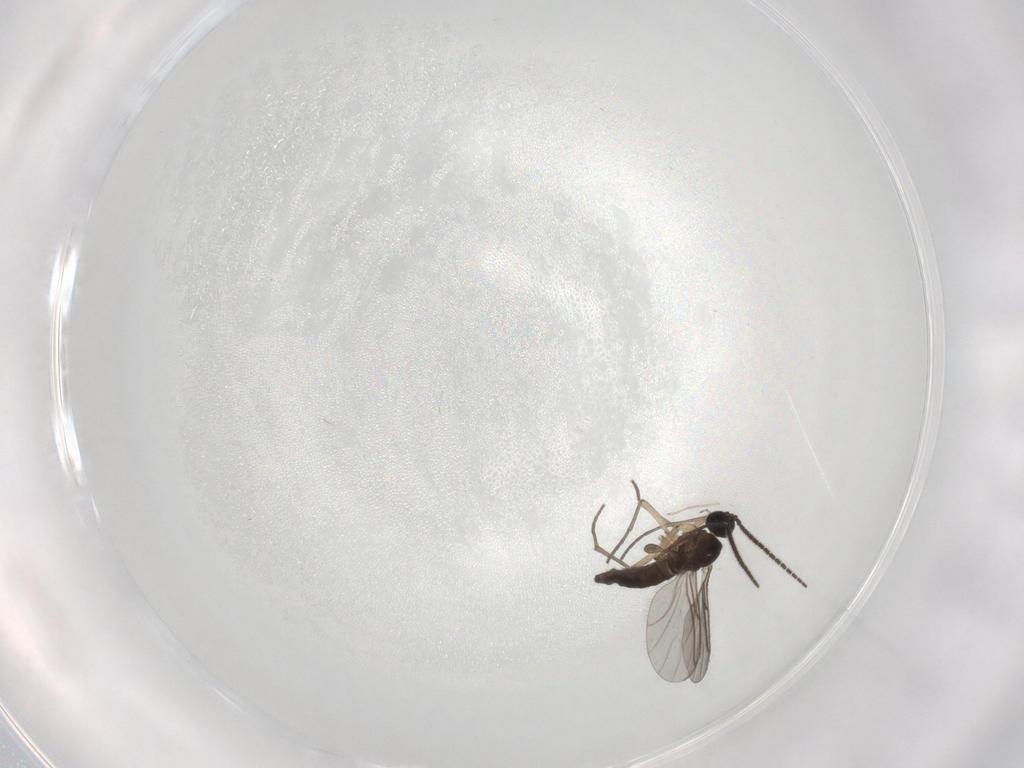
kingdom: Animalia
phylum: Arthropoda
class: Insecta
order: Diptera
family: Sciaridae
